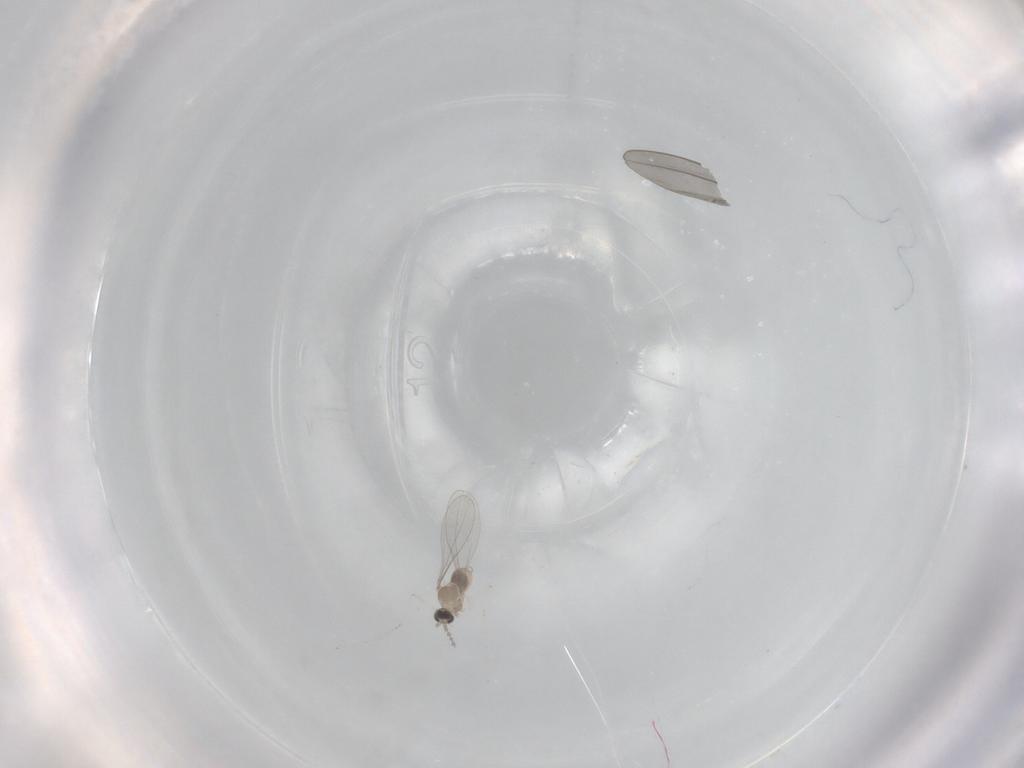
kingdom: Animalia
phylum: Arthropoda
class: Insecta
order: Diptera
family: Cecidomyiidae
